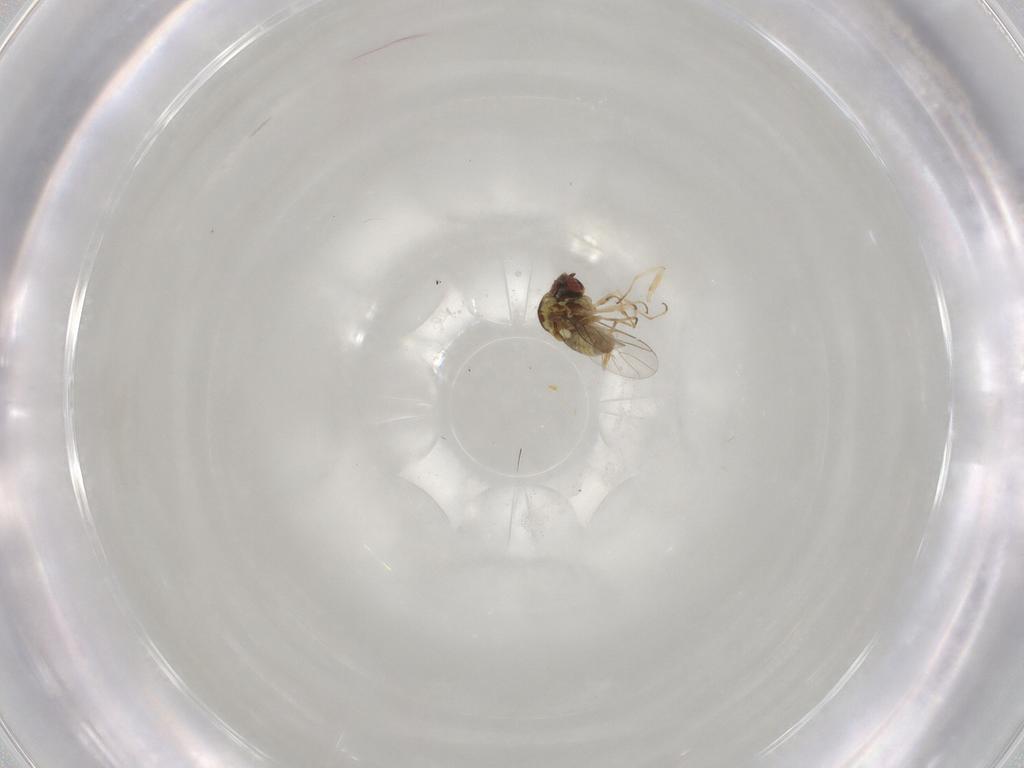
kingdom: Animalia
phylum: Arthropoda
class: Insecta
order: Diptera
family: Bombyliidae
